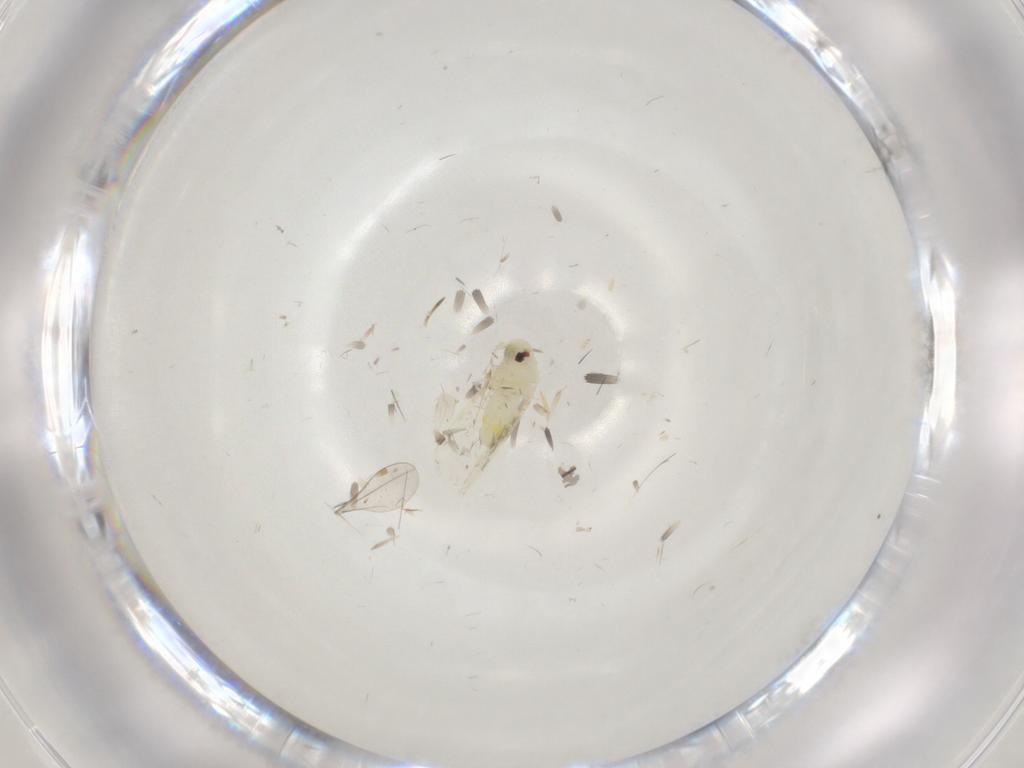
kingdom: Animalia
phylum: Arthropoda
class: Insecta
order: Hemiptera
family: Aleyrodidae
